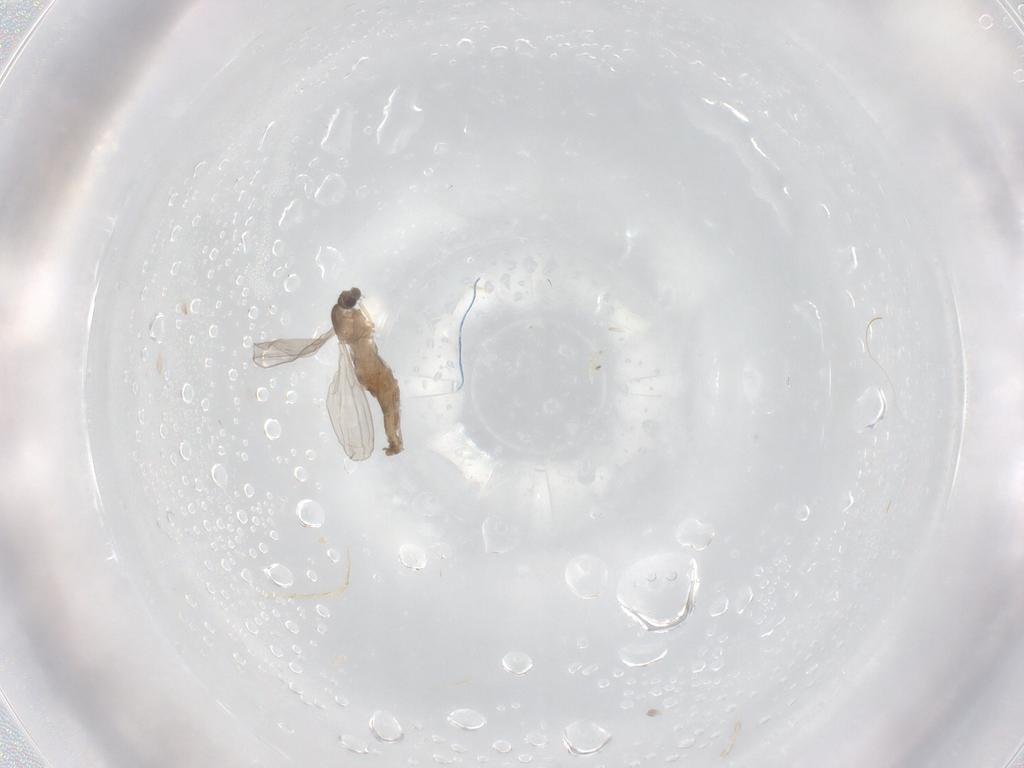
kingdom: Animalia
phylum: Arthropoda
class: Insecta
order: Diptera
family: Cecidomyiidae
